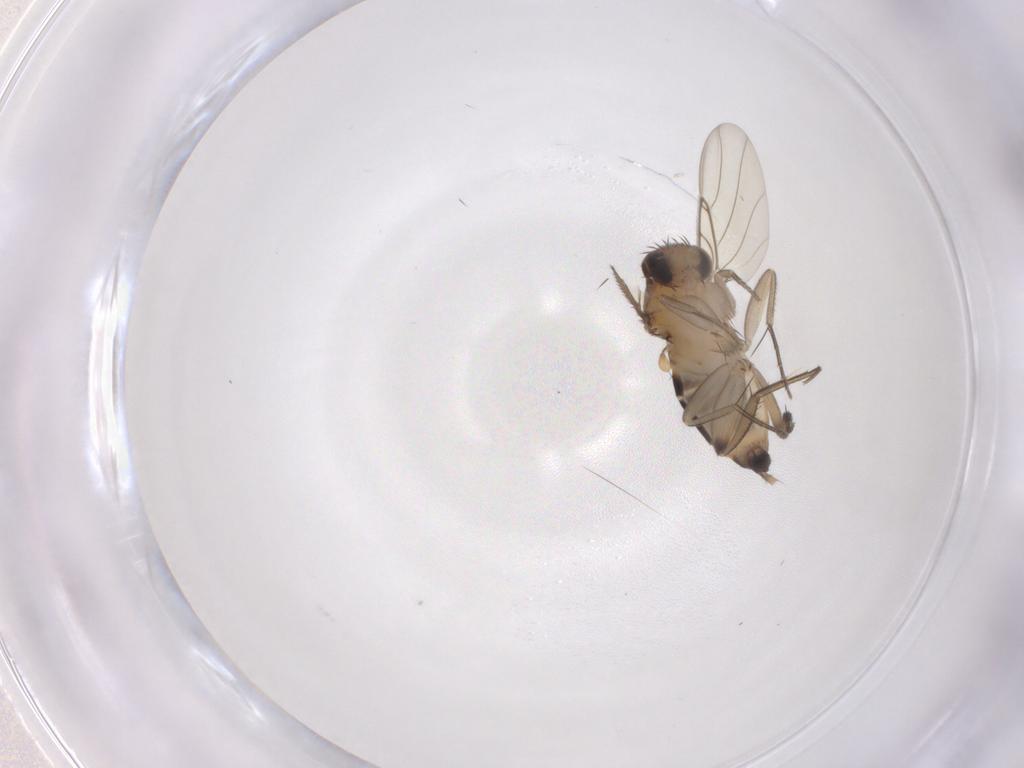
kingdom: Animalia
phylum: Arthropoda
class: Insecta
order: Diptera
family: Phoridae
